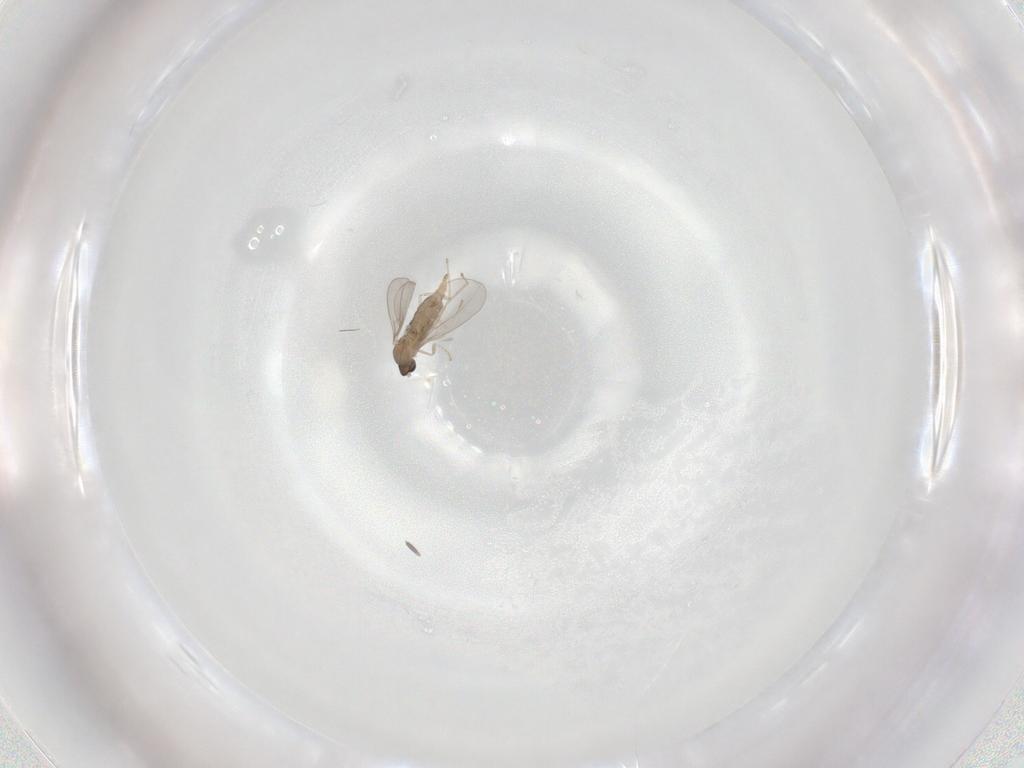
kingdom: Animalia
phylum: Arthropoda
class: Insecta
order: Diptera
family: Cecidomyiidae
